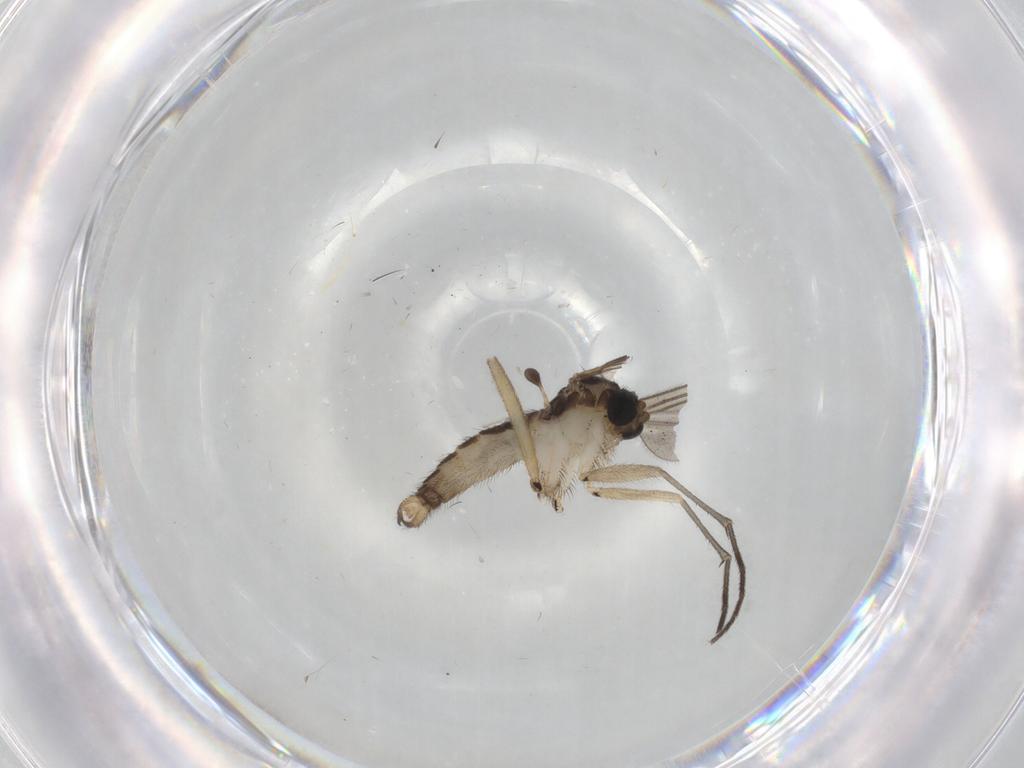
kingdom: Animalia
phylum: Arthropoda
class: Insecta
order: Diptera
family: Sciaridae
